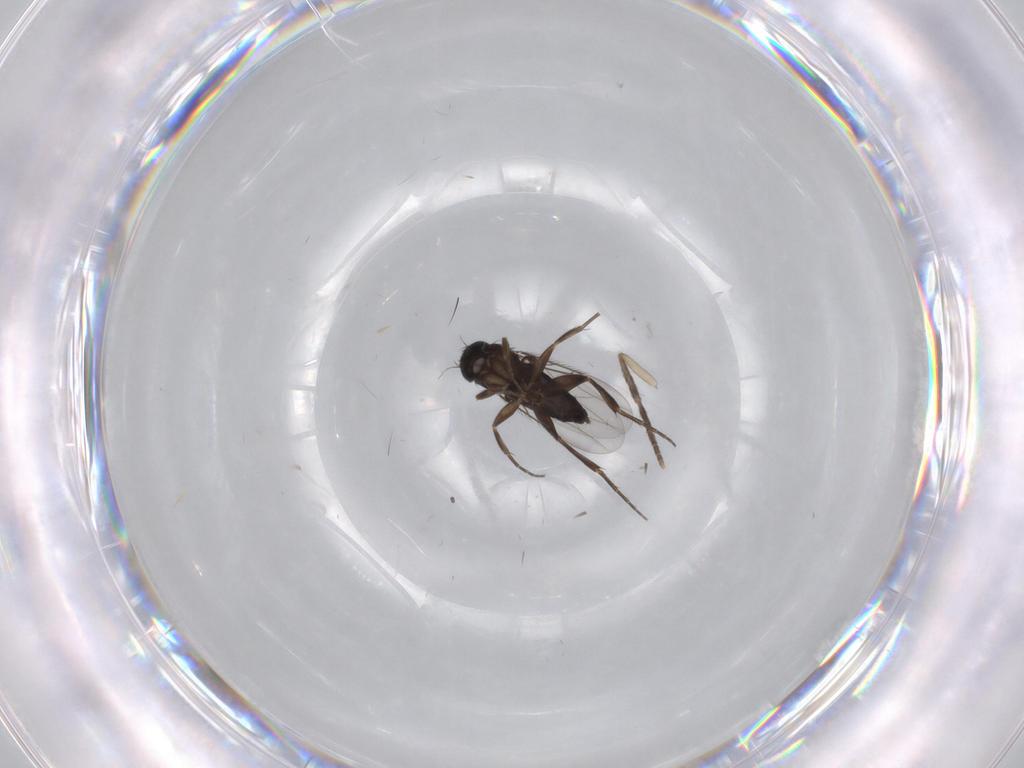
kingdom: Animalia
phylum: Arthropoda
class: Insecta
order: Diptera
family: Phoridae
